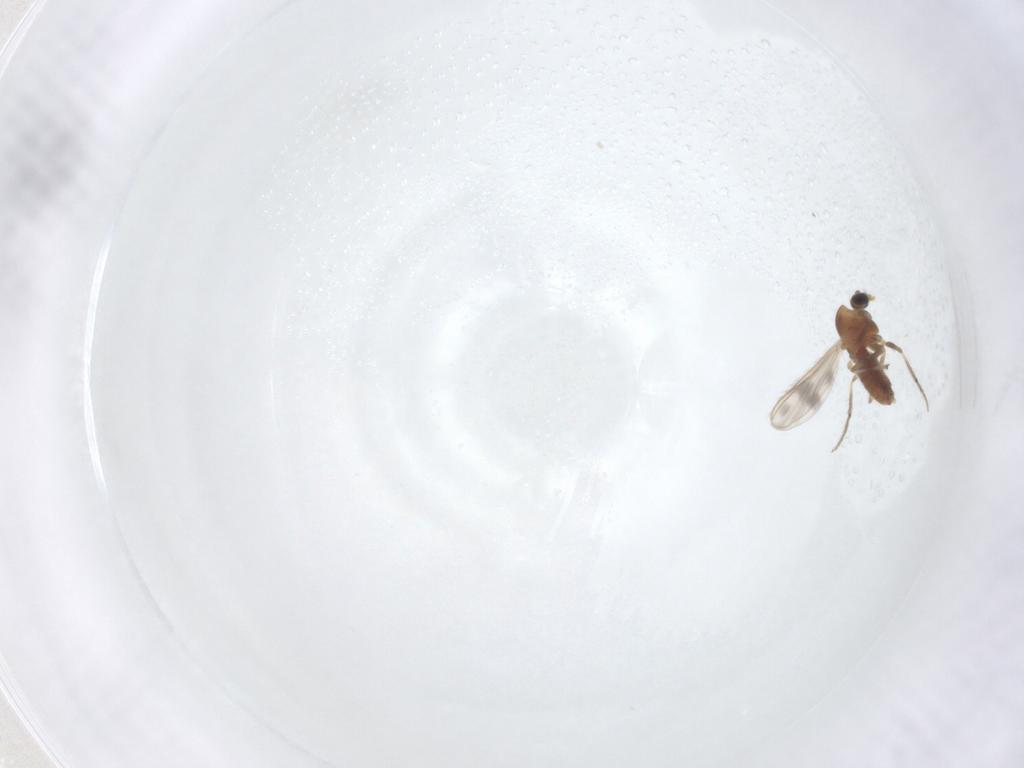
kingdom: Animalia
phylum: Arthropoda
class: Insecta
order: Diptera
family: Chironomidae
